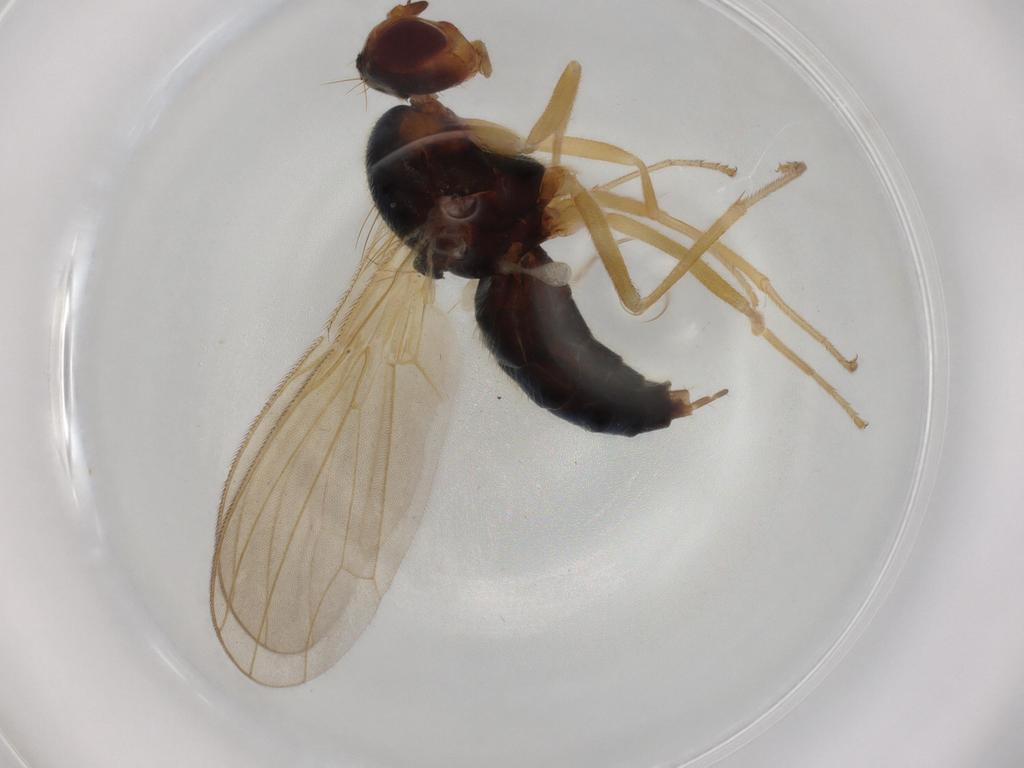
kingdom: Animalia
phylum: Arthropoda
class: Insecta
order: Diptera
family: Hybotidae
